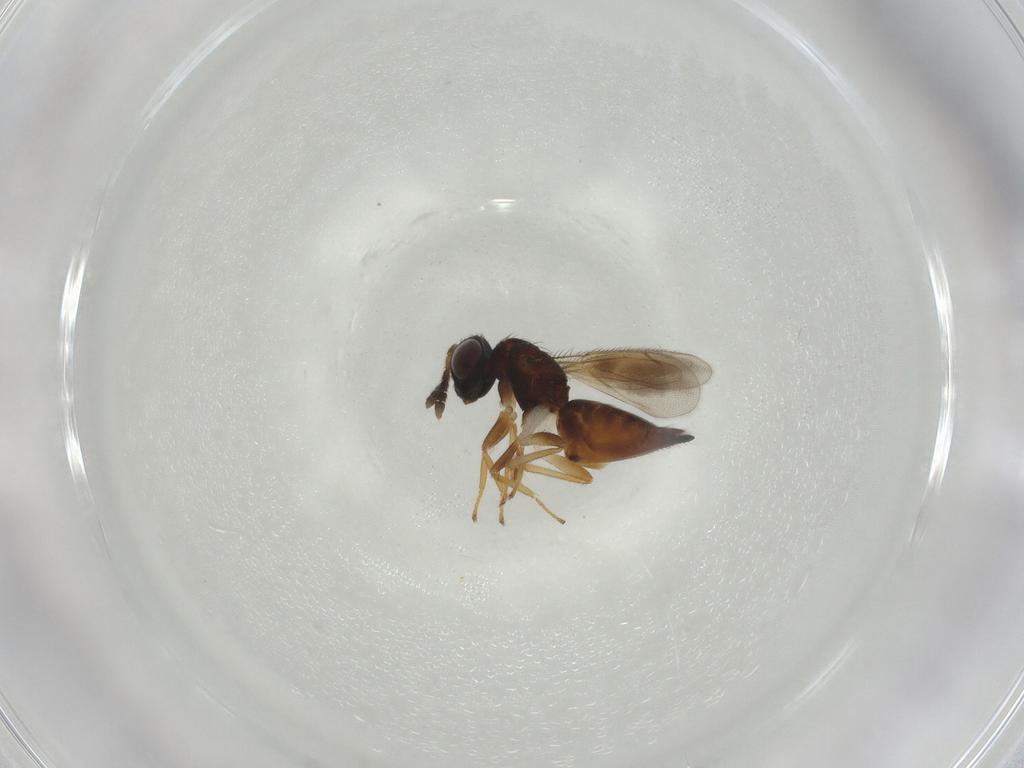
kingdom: Animalia
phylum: Arthropoda
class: Insecta
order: Hymenoptera
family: Eulophidae
